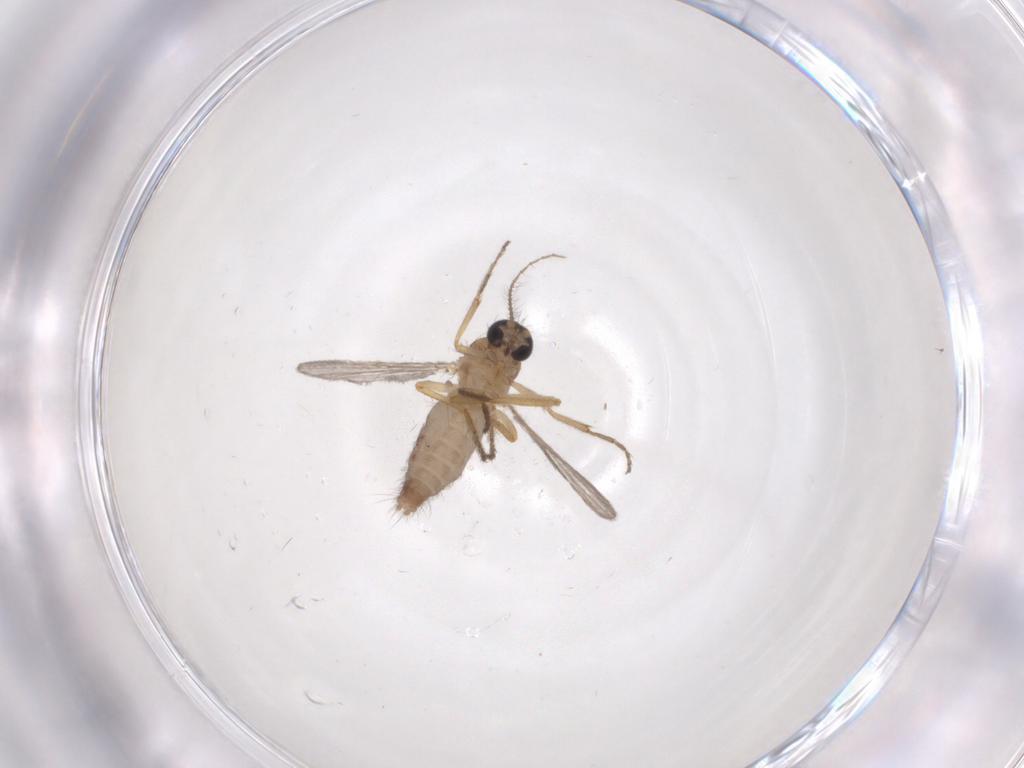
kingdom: Animalia
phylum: Arthropoda
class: Insecta
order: Diptera
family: Ceratopogonidae
